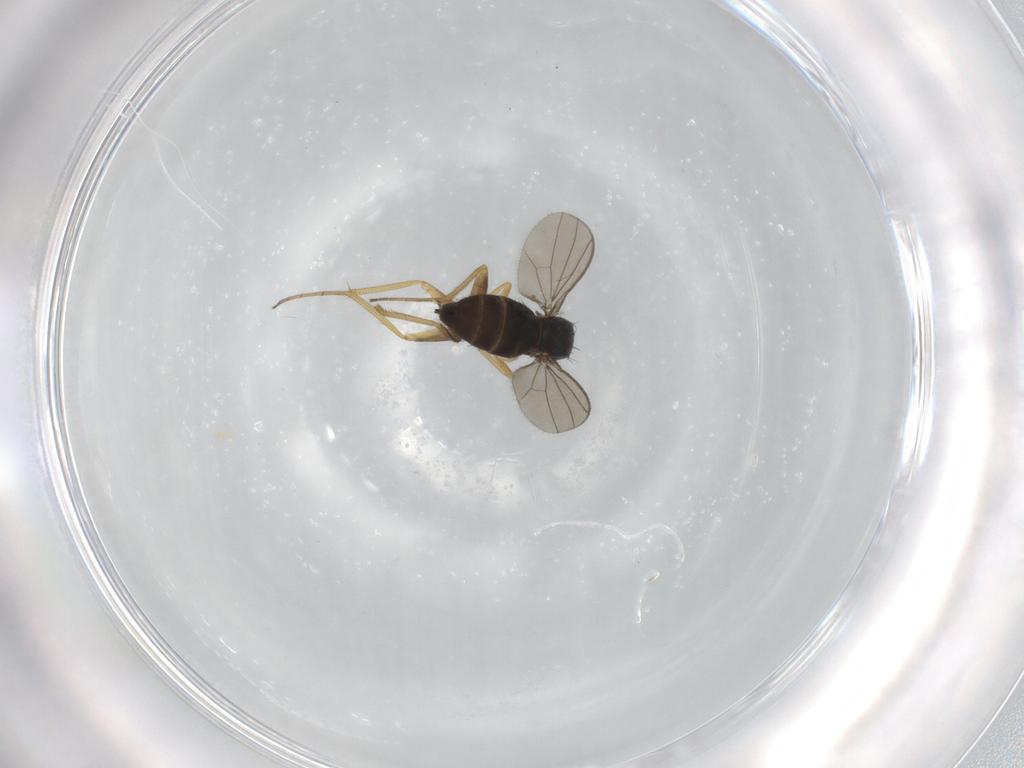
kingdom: Animalia
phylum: Arthropoda
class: Insecta
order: Diptera
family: Dolichopodidae
